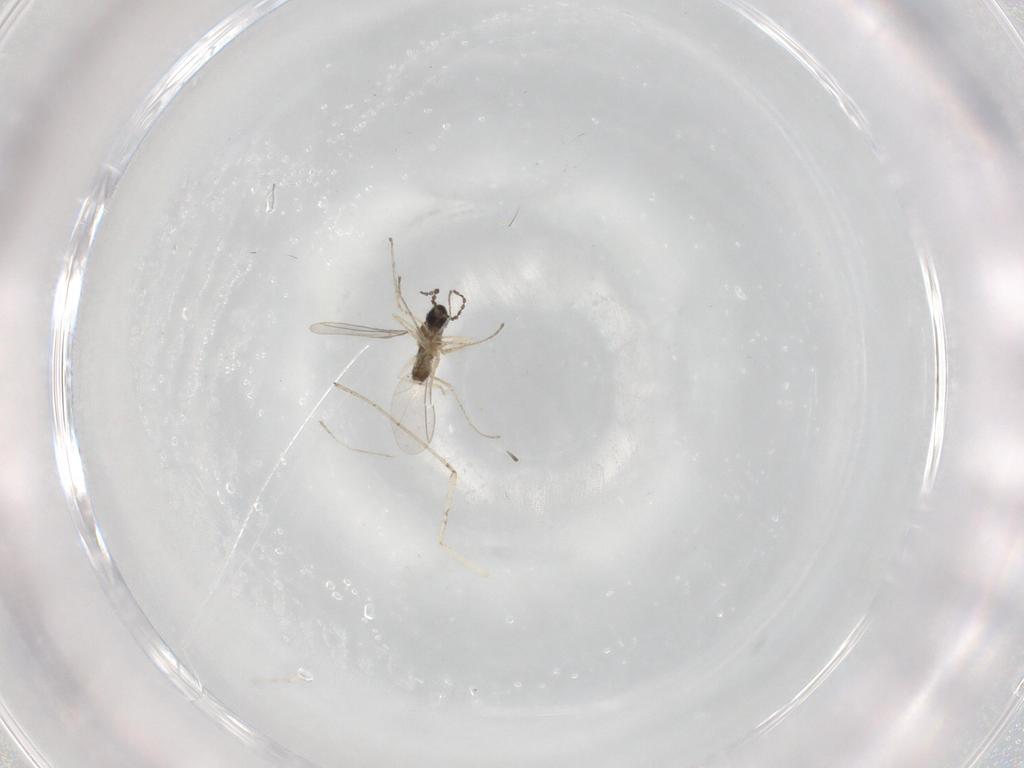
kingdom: Animalia
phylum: Arthropoda
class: Insecta
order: Diptera
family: Cecidomyiidae
